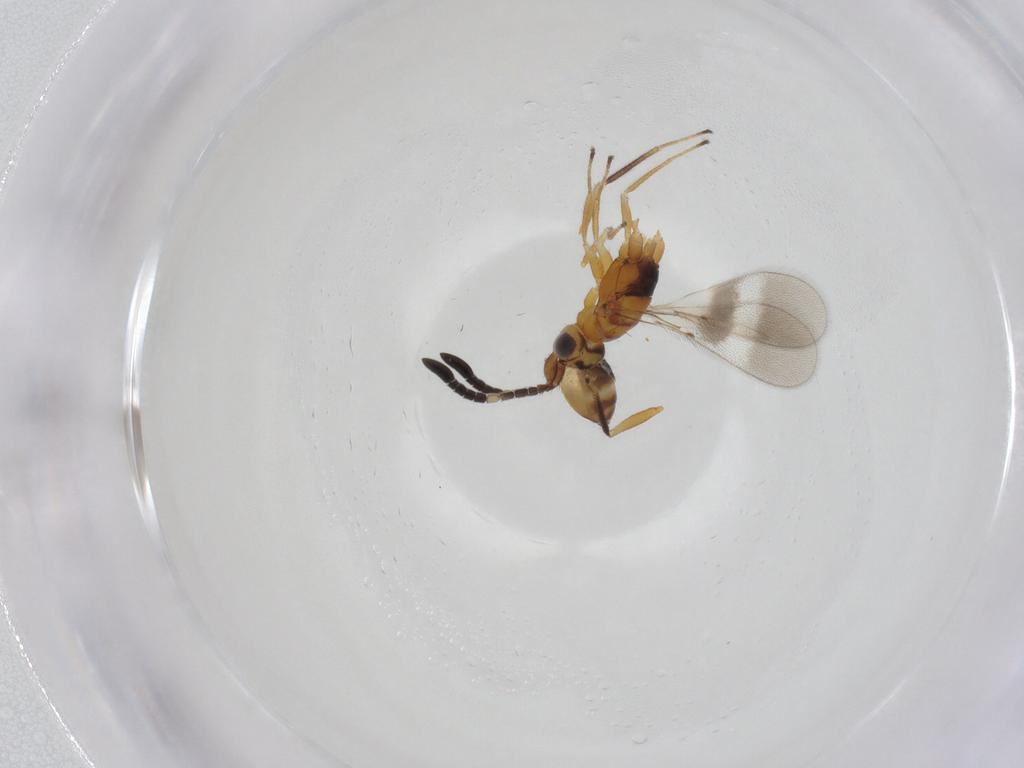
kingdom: Animalia
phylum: Arthropoda
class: Insecta
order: Hymenoptera
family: Mymaridae
